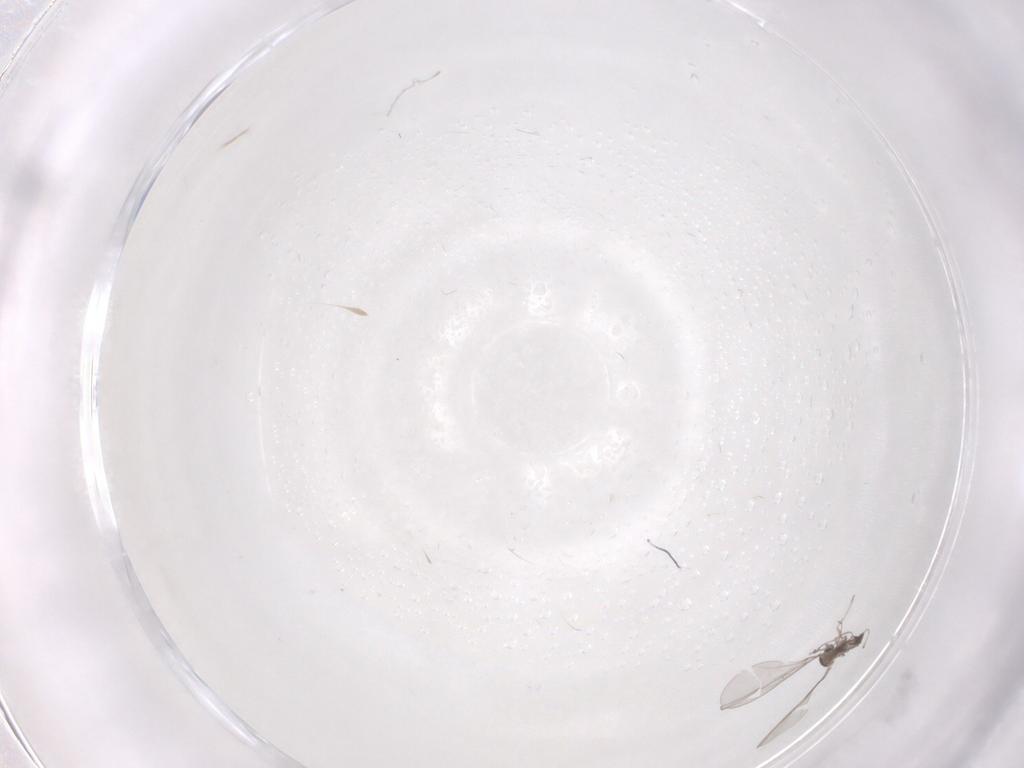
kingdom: Animalia
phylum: Arthropoda
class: Insecta
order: Diptera
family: Cecidomyiidae
